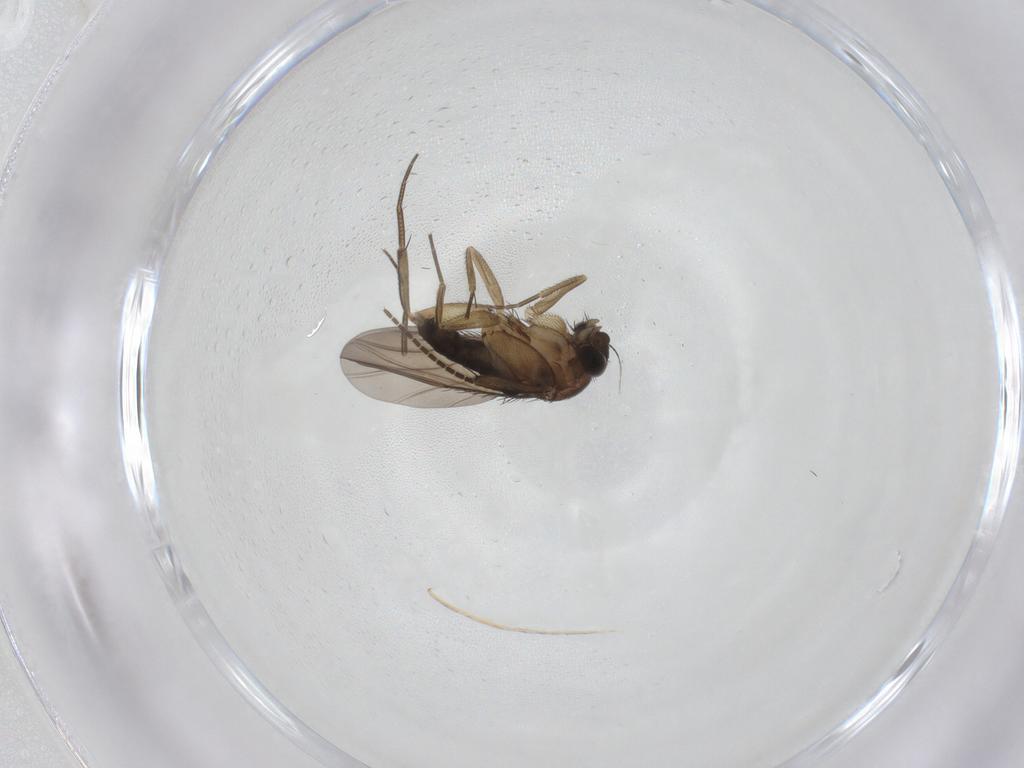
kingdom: Animalia
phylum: Arthropoda
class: Insecta
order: Diptera
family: Phoridae
